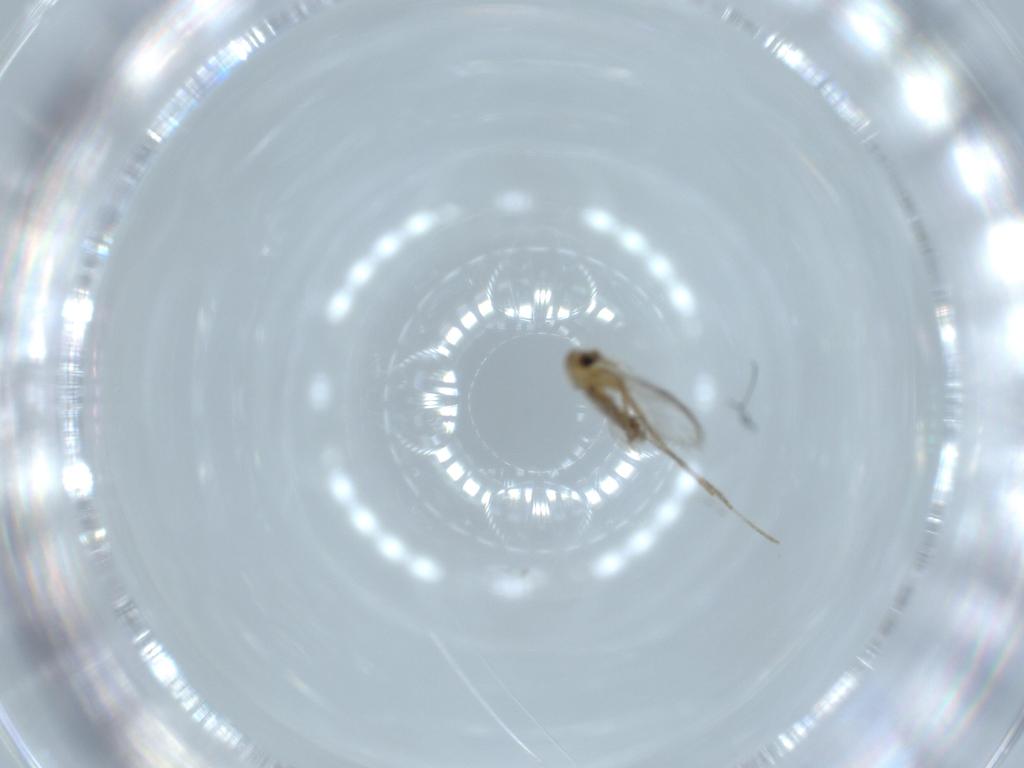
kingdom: Animalia
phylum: Arthropoda
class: Insecta
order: Diptera
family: Psychodidae
